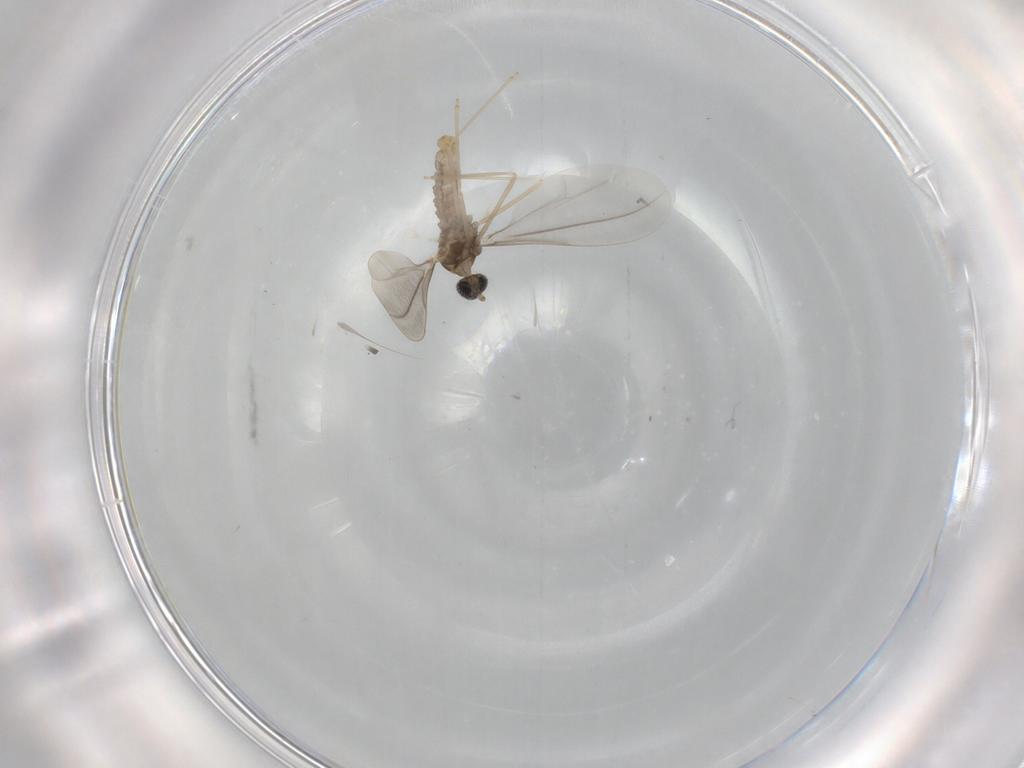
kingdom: Animalia
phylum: Arthropoda
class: Insecta
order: Diptera
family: Cecidomyiidae
